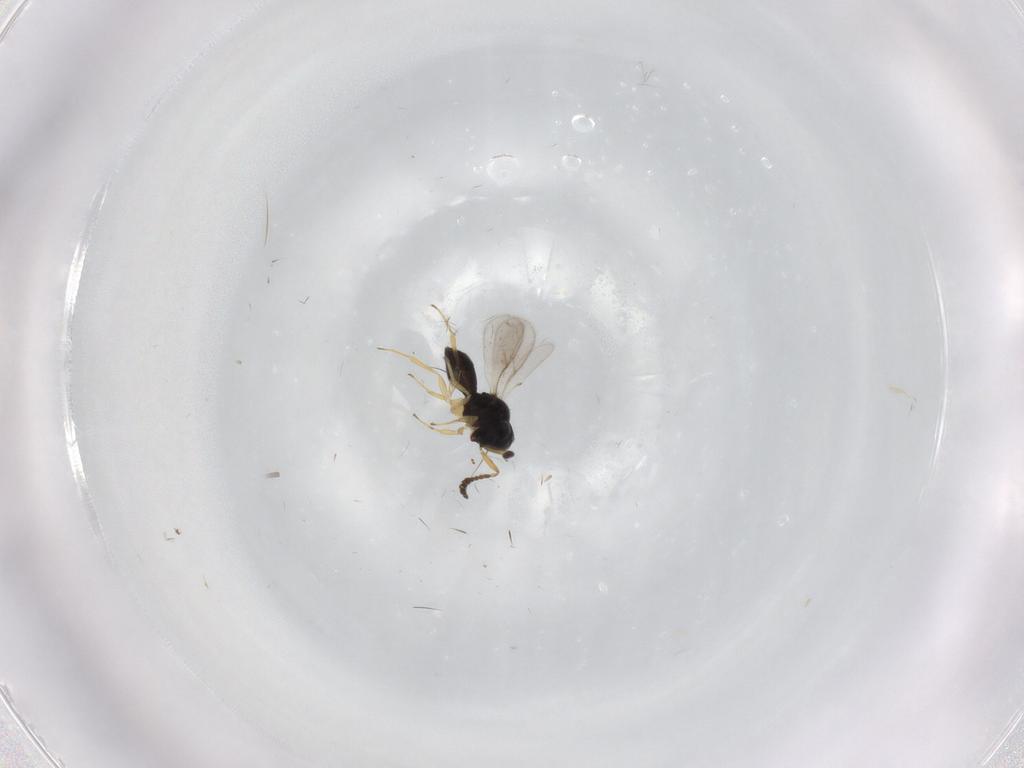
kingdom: Animalia
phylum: Arthropoda
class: Insecta
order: Hymenoptera
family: Scelionidae
